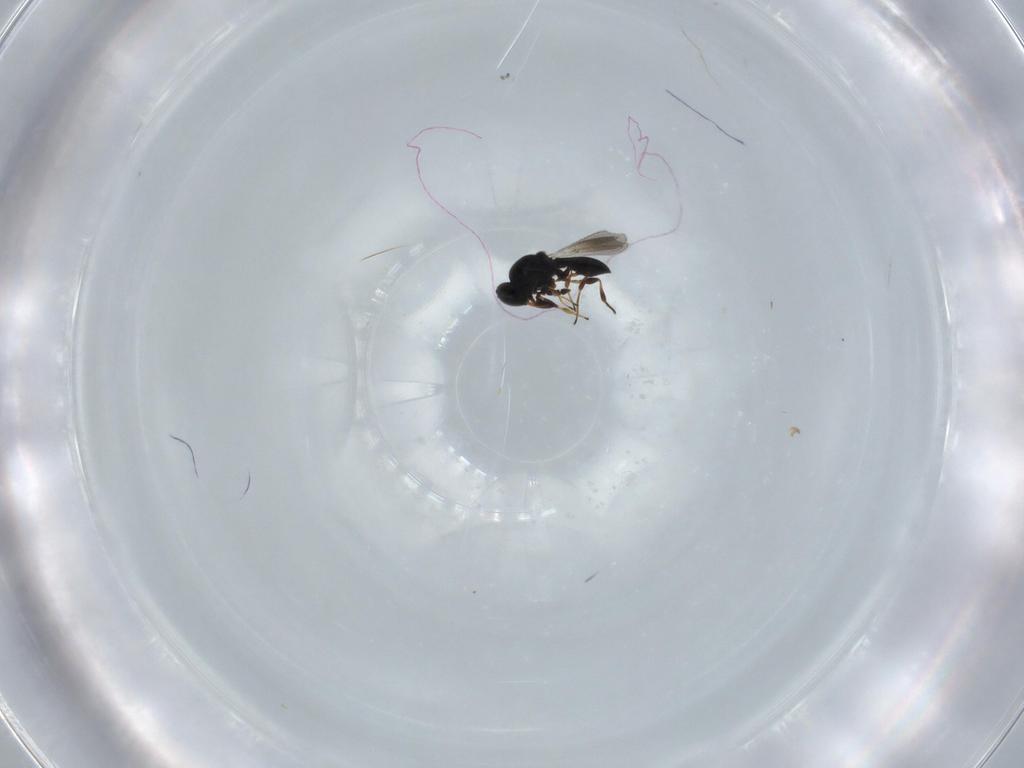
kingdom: Animalia
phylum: Arthropoda
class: Insecta
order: Hymenoptera
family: Platygastridae
